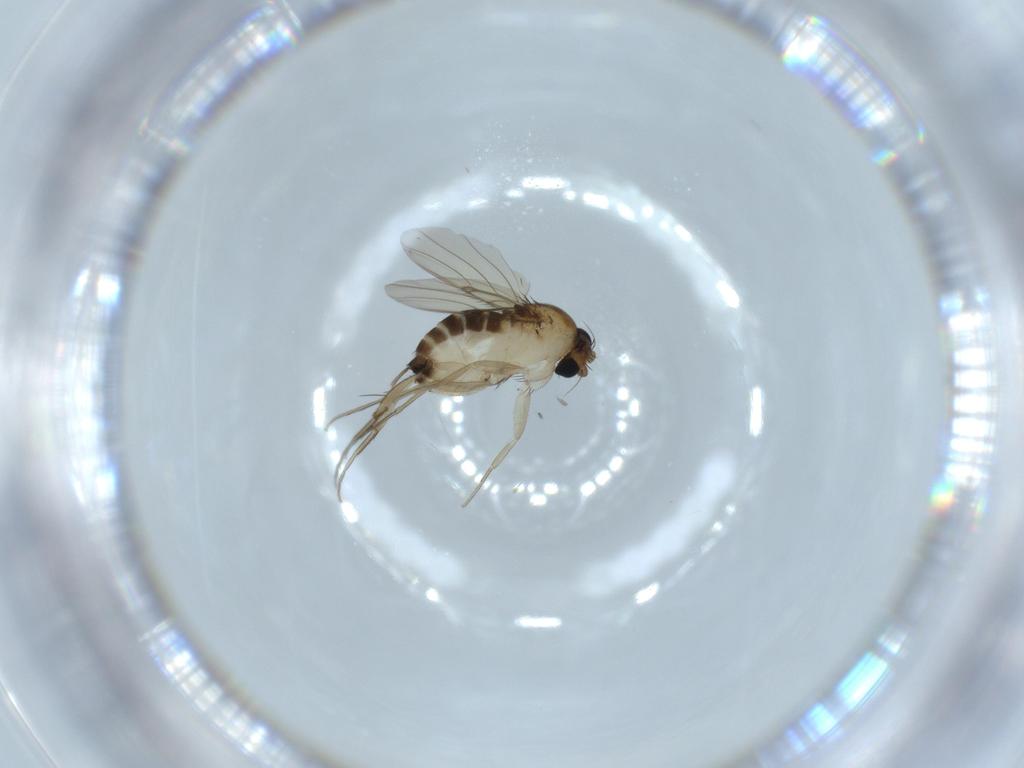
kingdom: Animalia
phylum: Arthropoda
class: Insecta
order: Diptera
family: Phoridae
